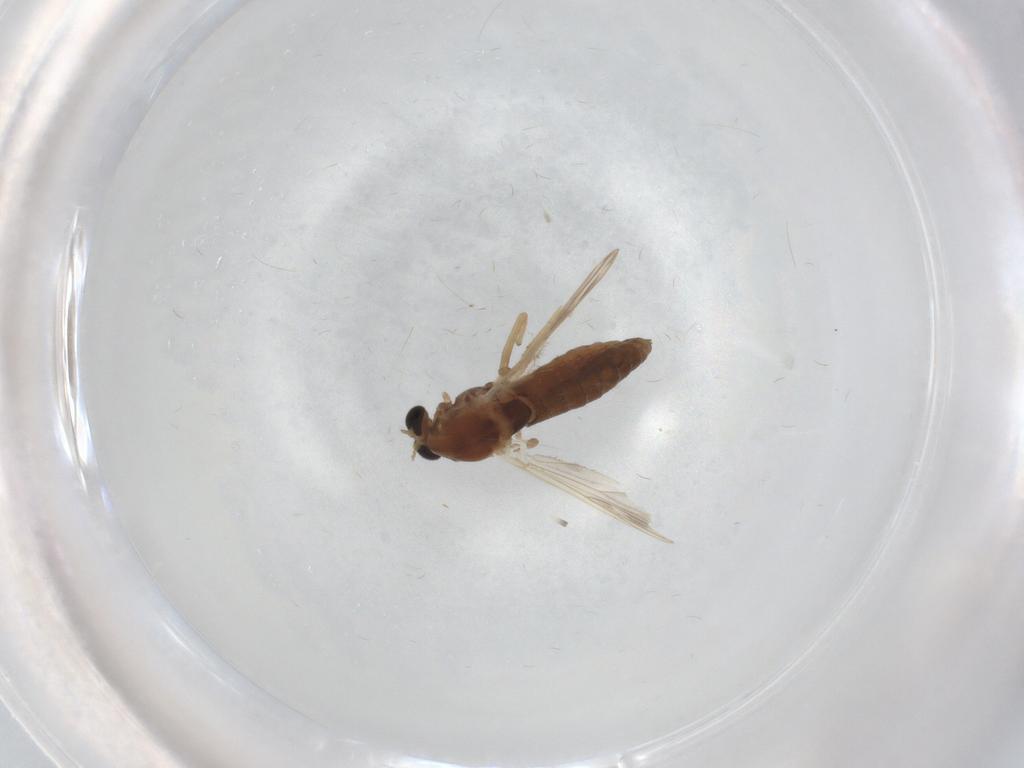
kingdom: Animalia
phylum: Arthropoda
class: Insecta
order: Diptera
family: Chironomidae
